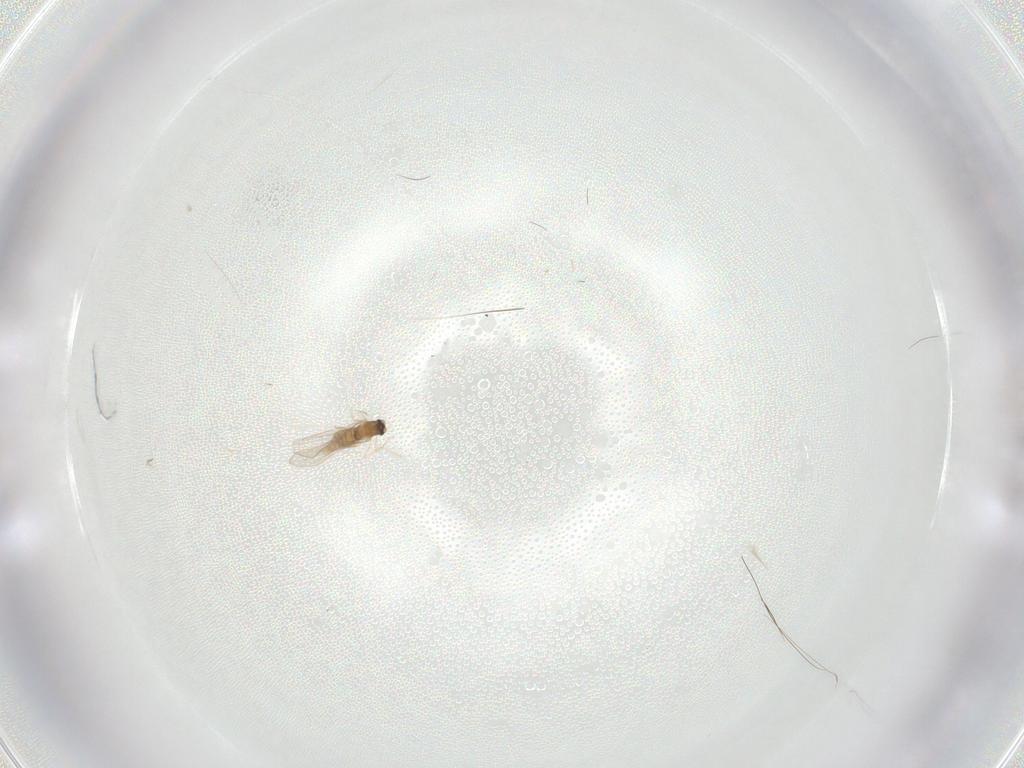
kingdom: Animalia
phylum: Arthropoda
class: Insecta
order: Diptera
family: Cecidomyiidae
